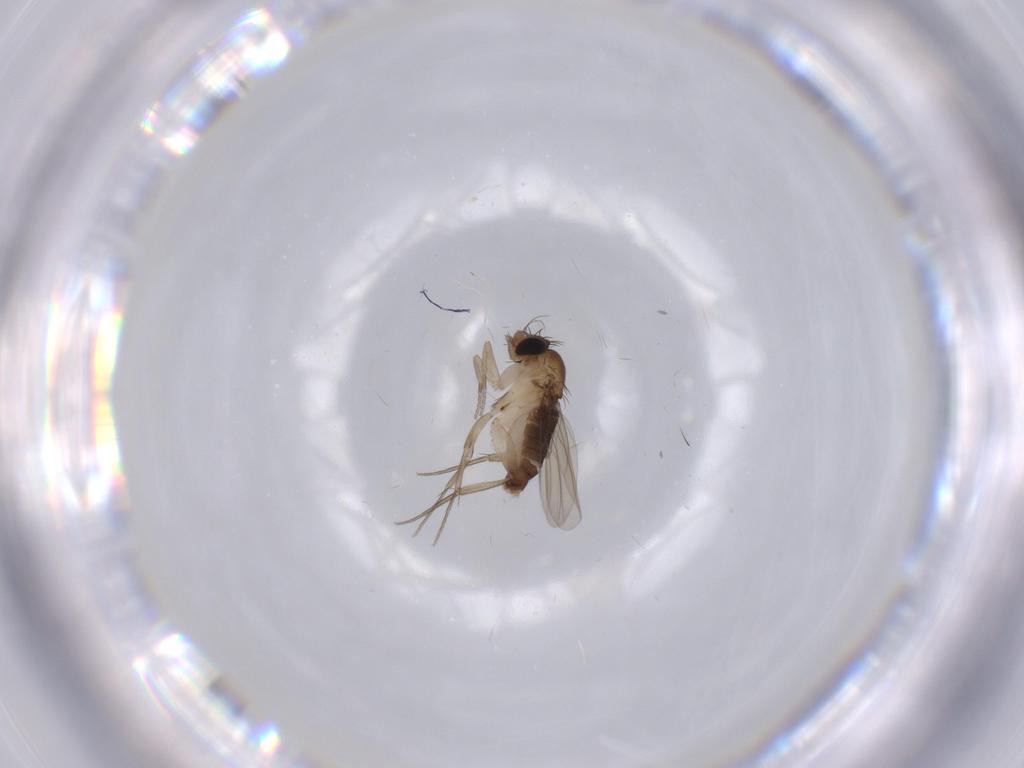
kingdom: Animalia
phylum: Arthropoda
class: Insecta
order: Diptera
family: Phoridae
